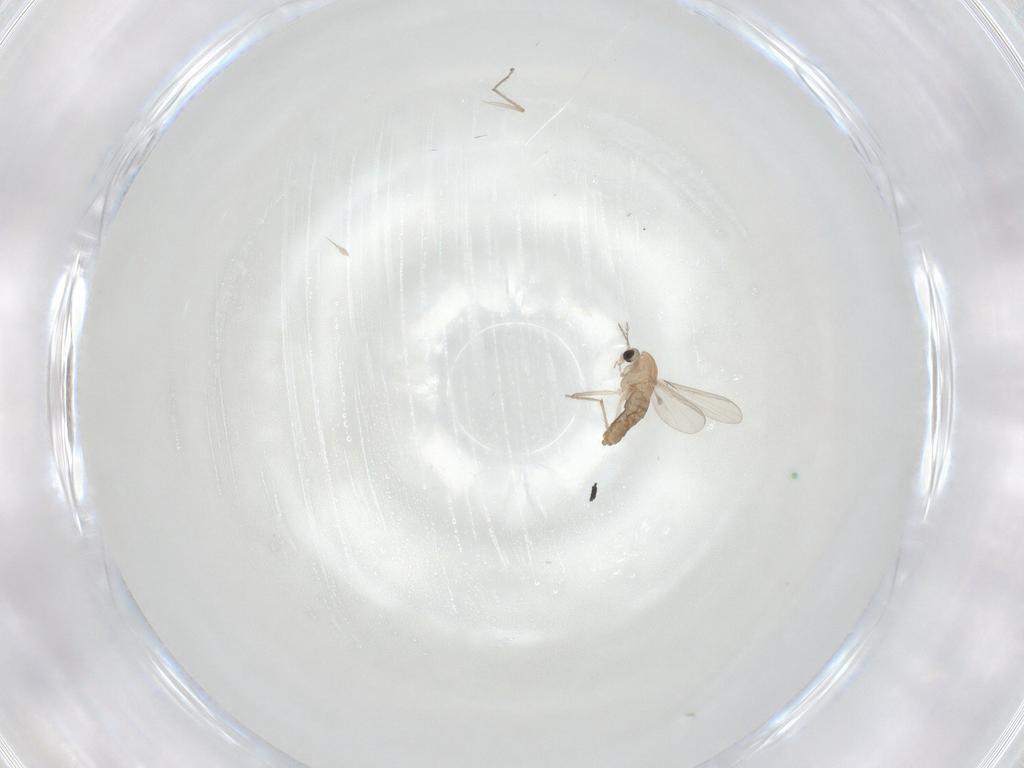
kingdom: Animalia
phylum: Arthropoda
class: Insecta
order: Diptera
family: Chironomidae
